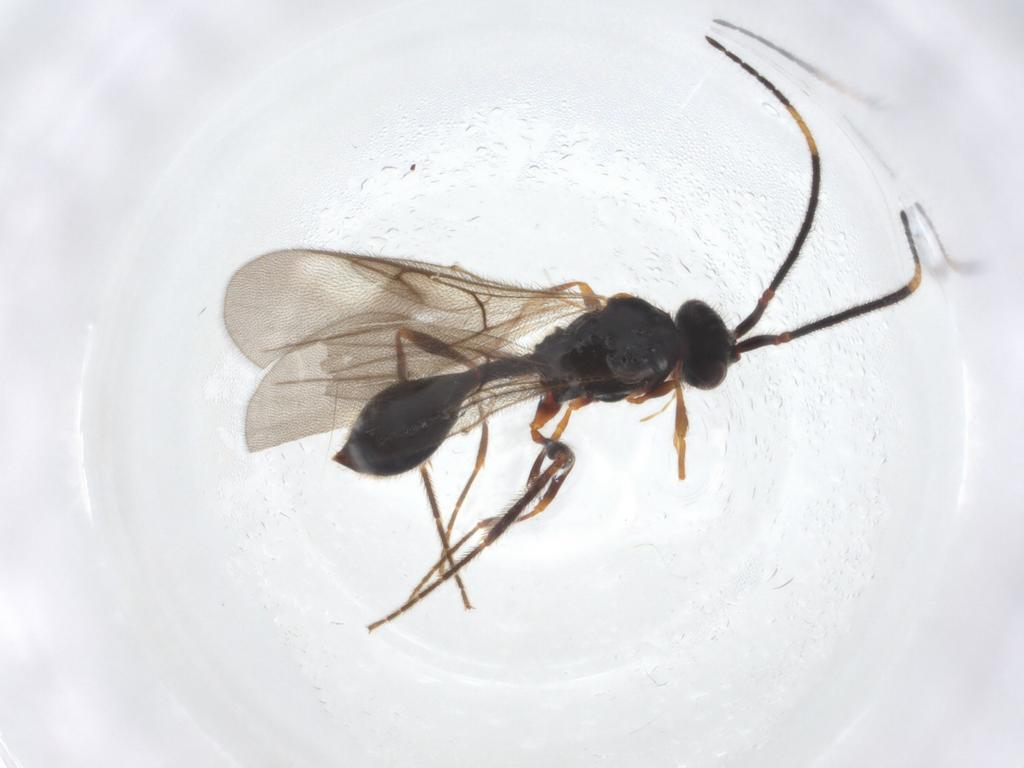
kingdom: Animalia
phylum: Arthropoda
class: Insecta
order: Hymenoptera
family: Diapriidae
